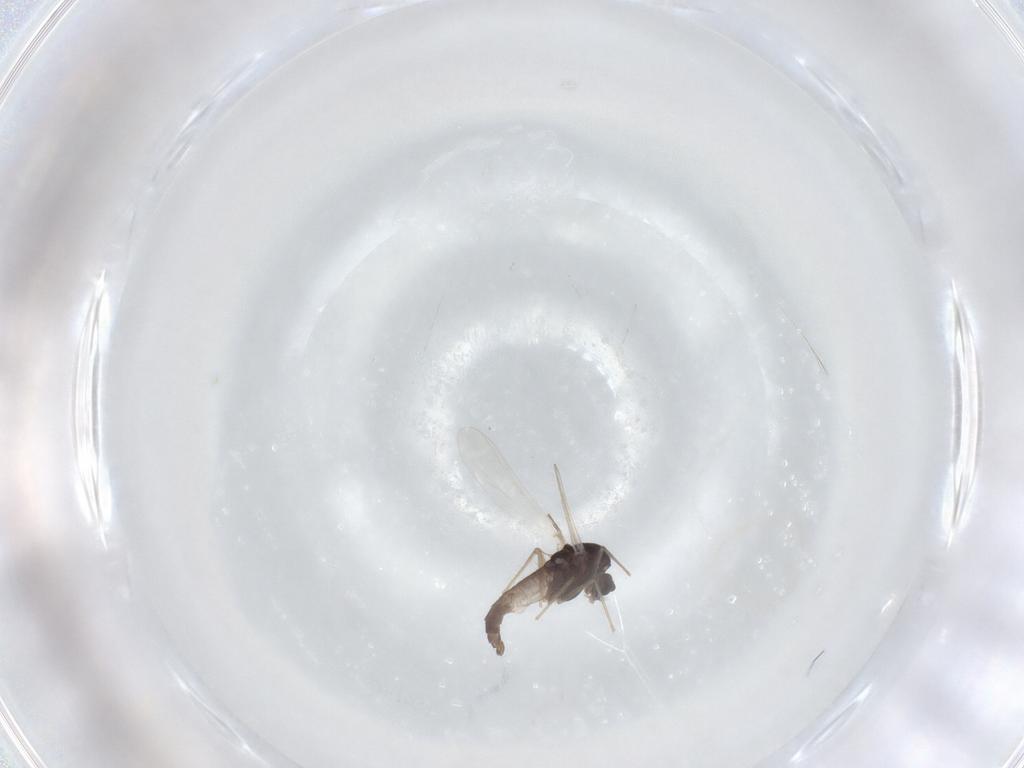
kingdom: Animalia
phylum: Arthropoda
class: Insecta
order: Diptera
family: Chironomidae
